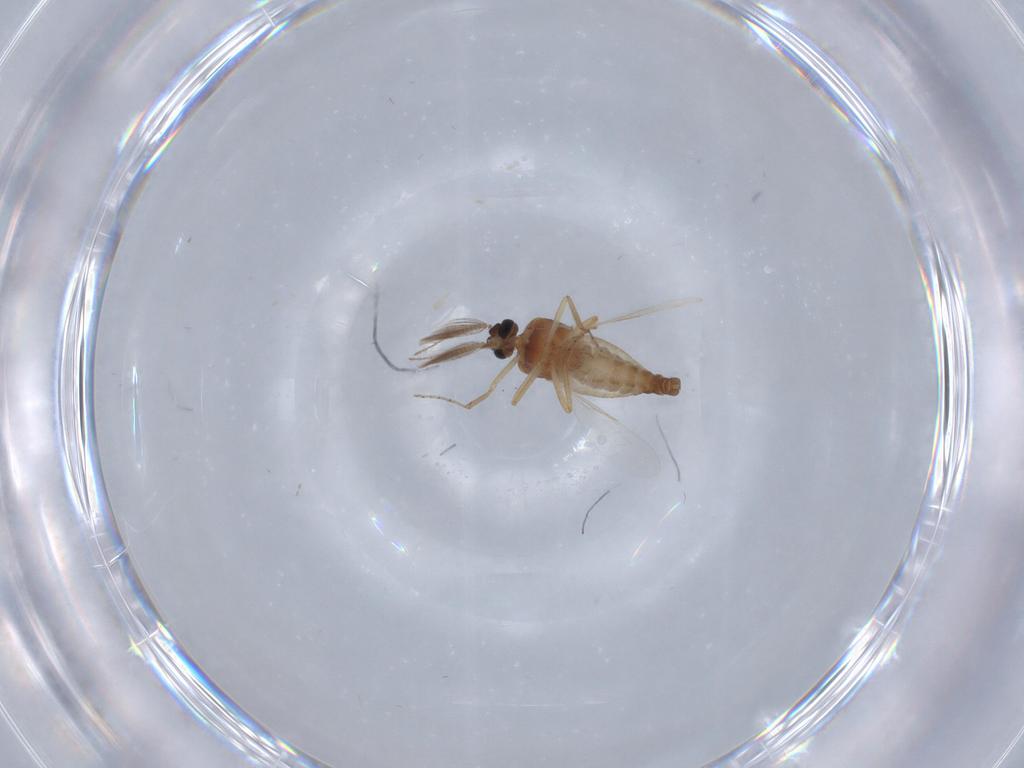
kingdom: Animalia
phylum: Arthropoda
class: Insecta
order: Diptera
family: Ceratopogonidae
